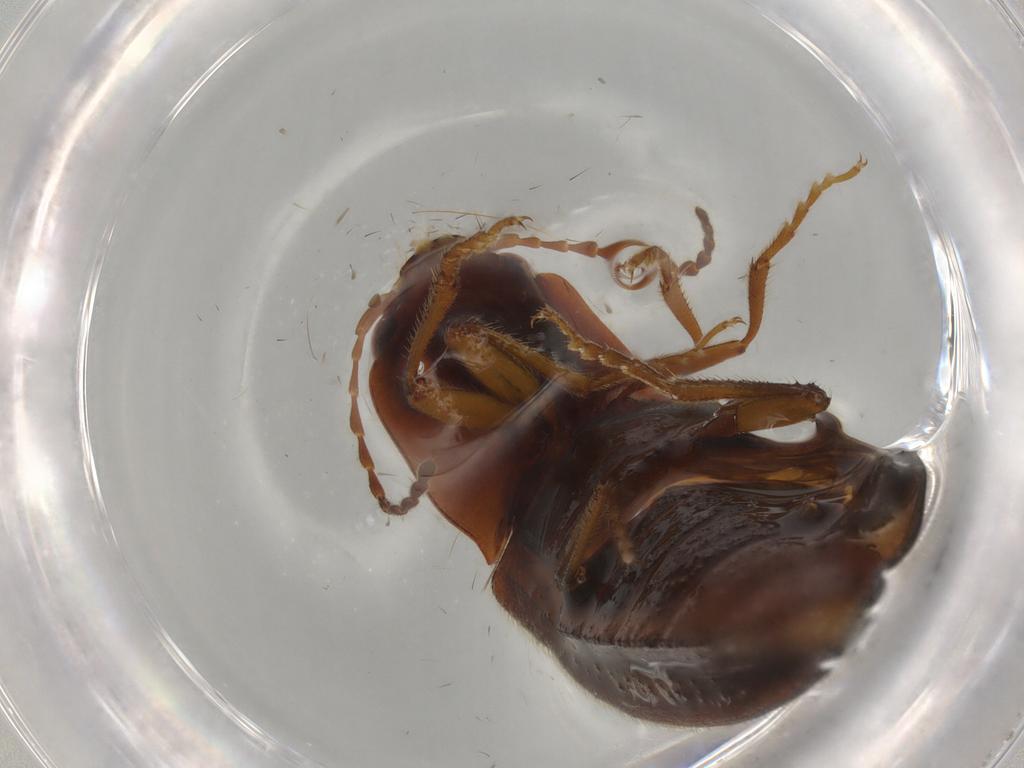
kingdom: Animalia
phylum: Arthropoda
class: Insecta
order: Coleoptera
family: Elateridae
